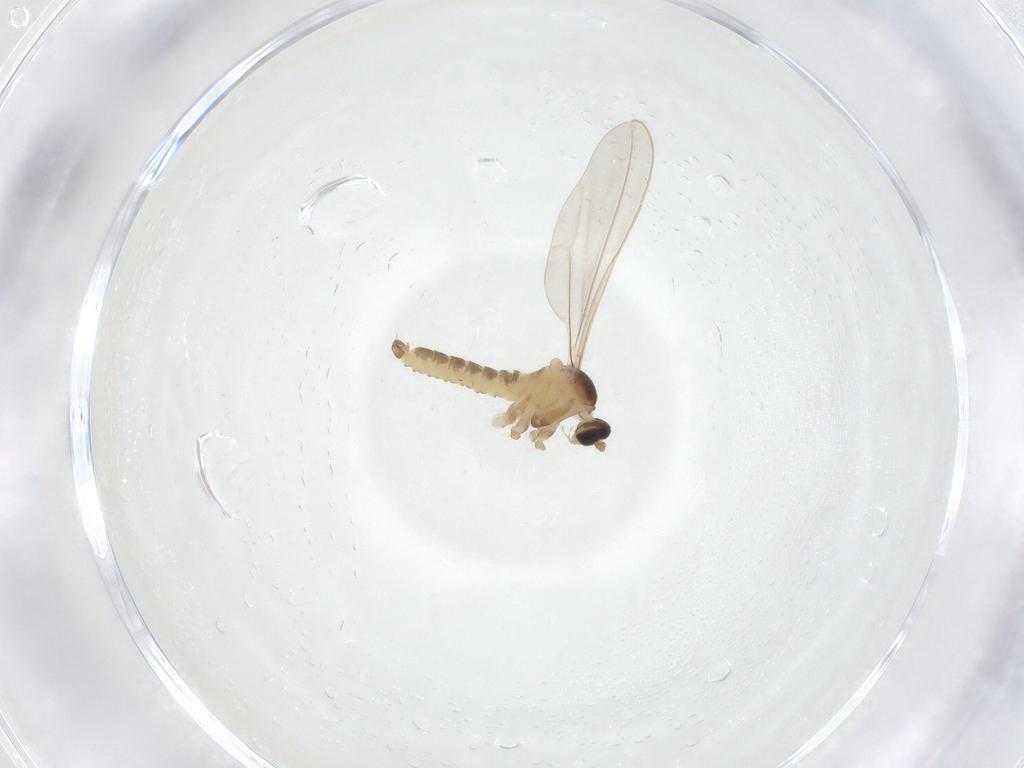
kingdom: Animalia
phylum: Arthropoda
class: Insecta
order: Diptera
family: Cecidomyiidae
